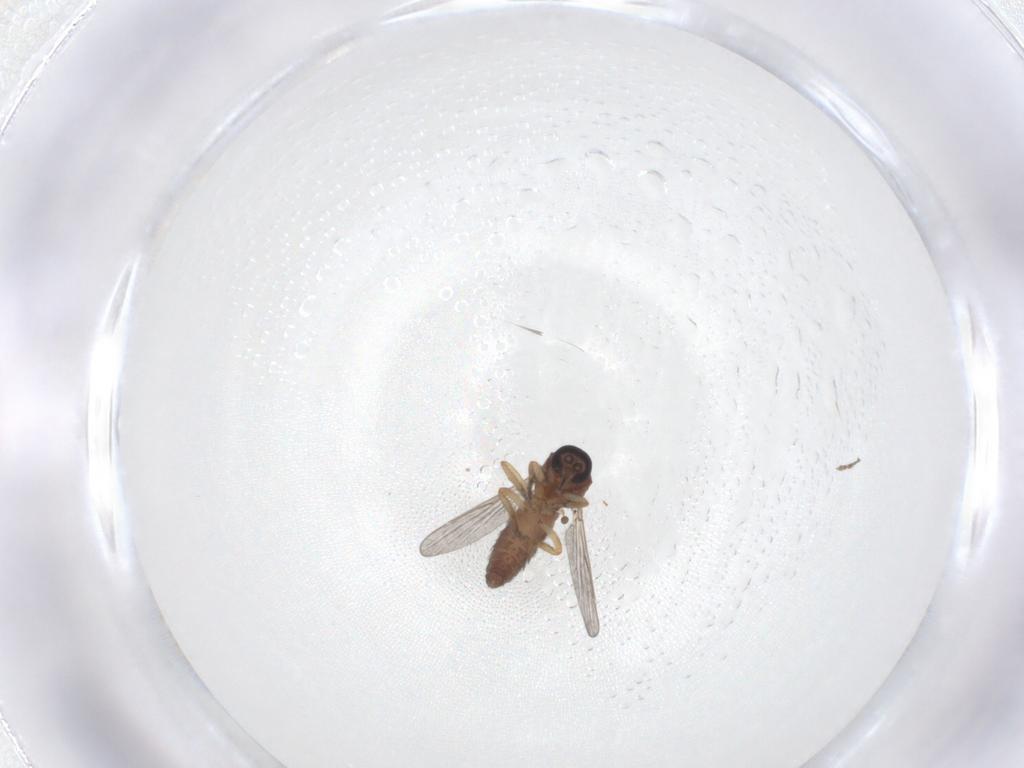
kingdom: Animalia
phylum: Arthropoda
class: Insecta
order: Diptera
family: Ceratopogonidae
